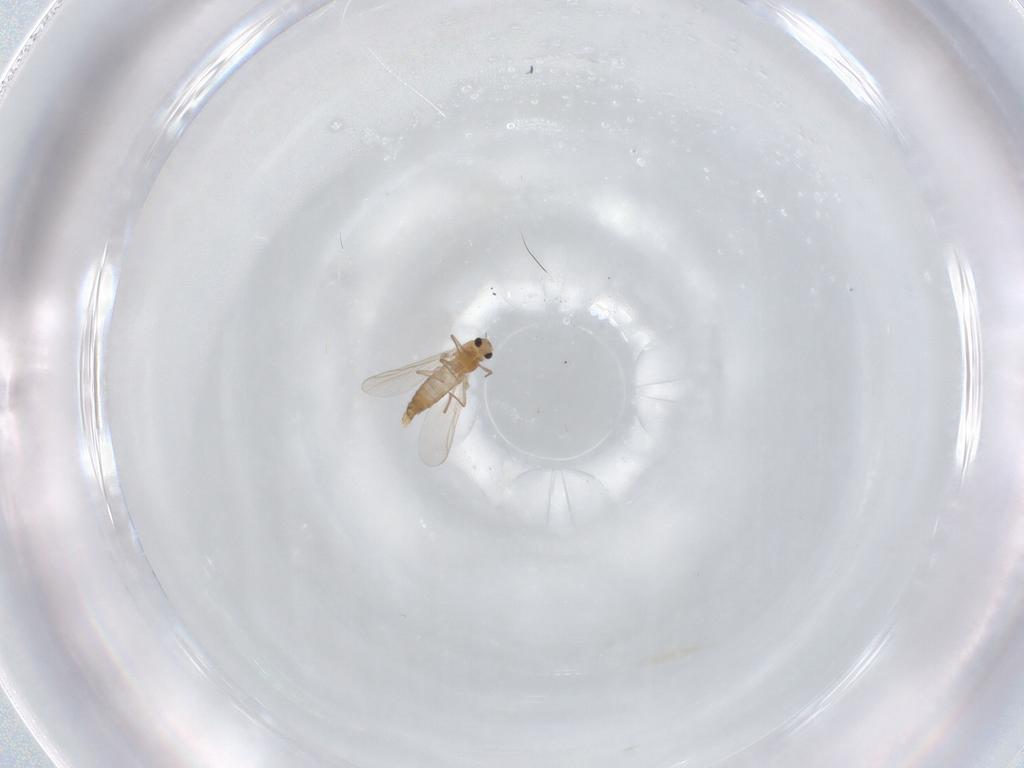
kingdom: Animalia
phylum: Arthropoda
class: Insecta
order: Diptera
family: Chironomidae
